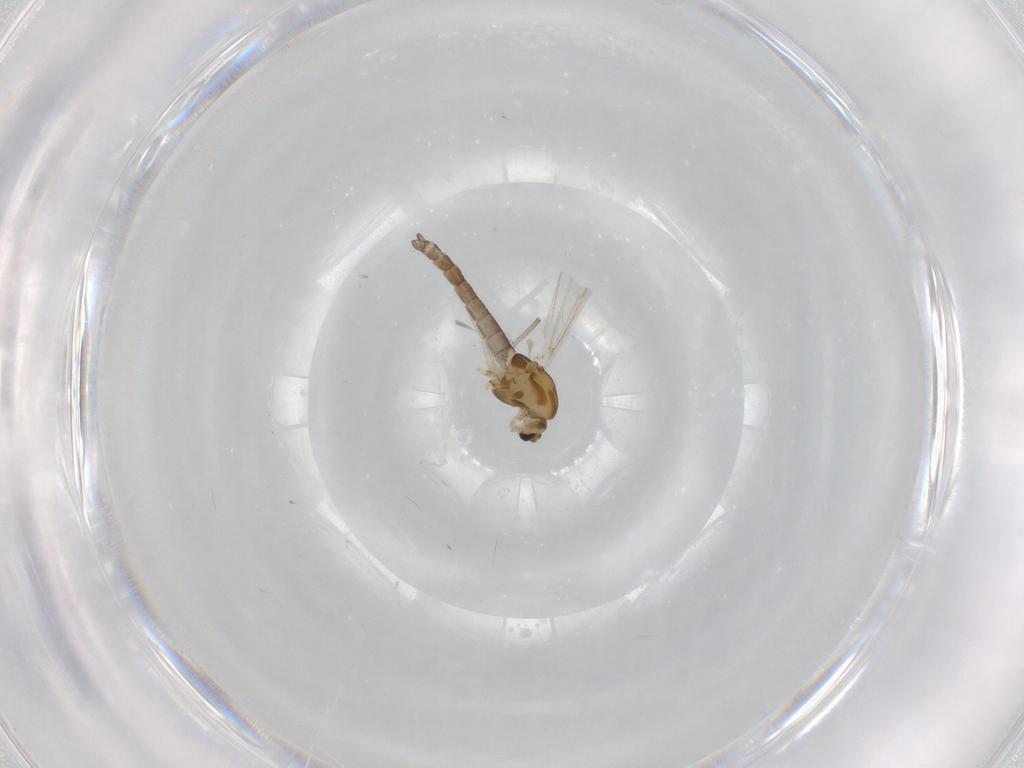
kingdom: Animalia
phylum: Arthropoda
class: Insecta
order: Diptera
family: Chironomidae
